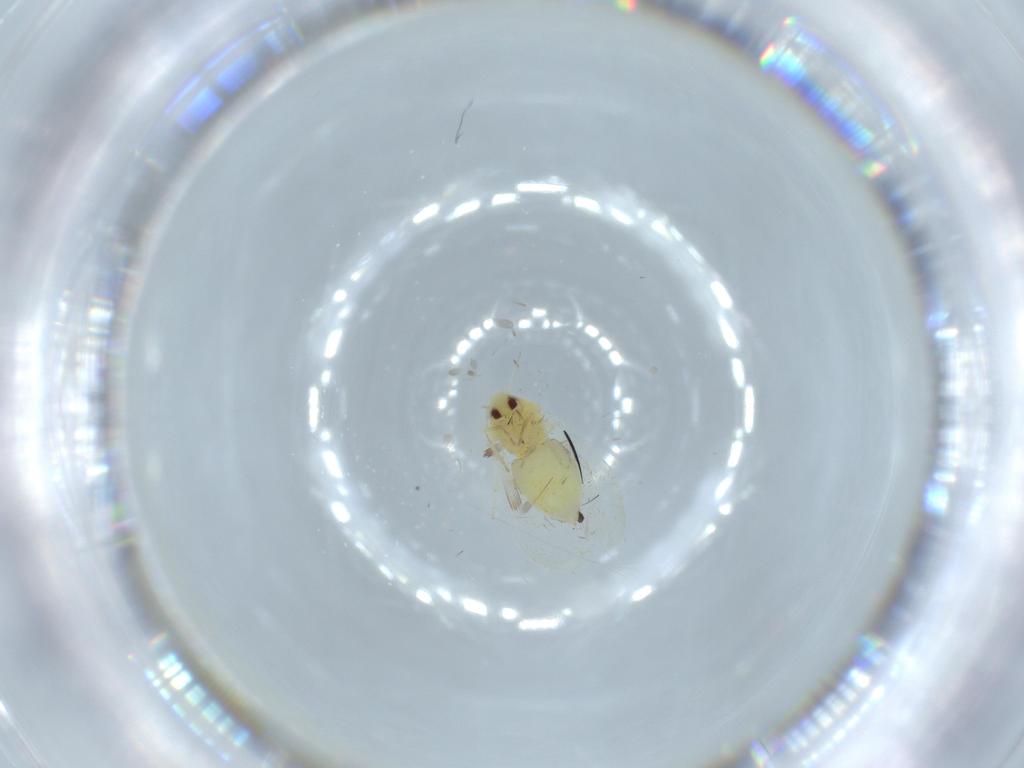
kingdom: Animalia
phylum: Arthropoda
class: Insecta
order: Hemiptera
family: Aleyrodidae
